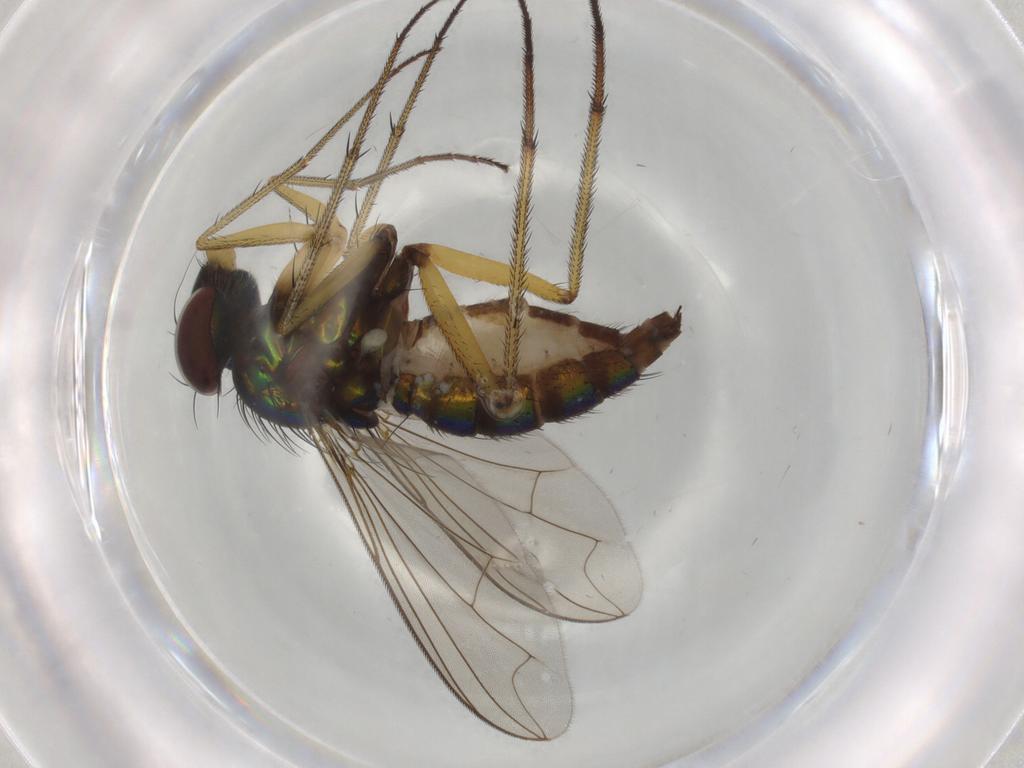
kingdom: Animalia
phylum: Arthropoda
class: Insecta
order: Diptera
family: Dolichopodidae
